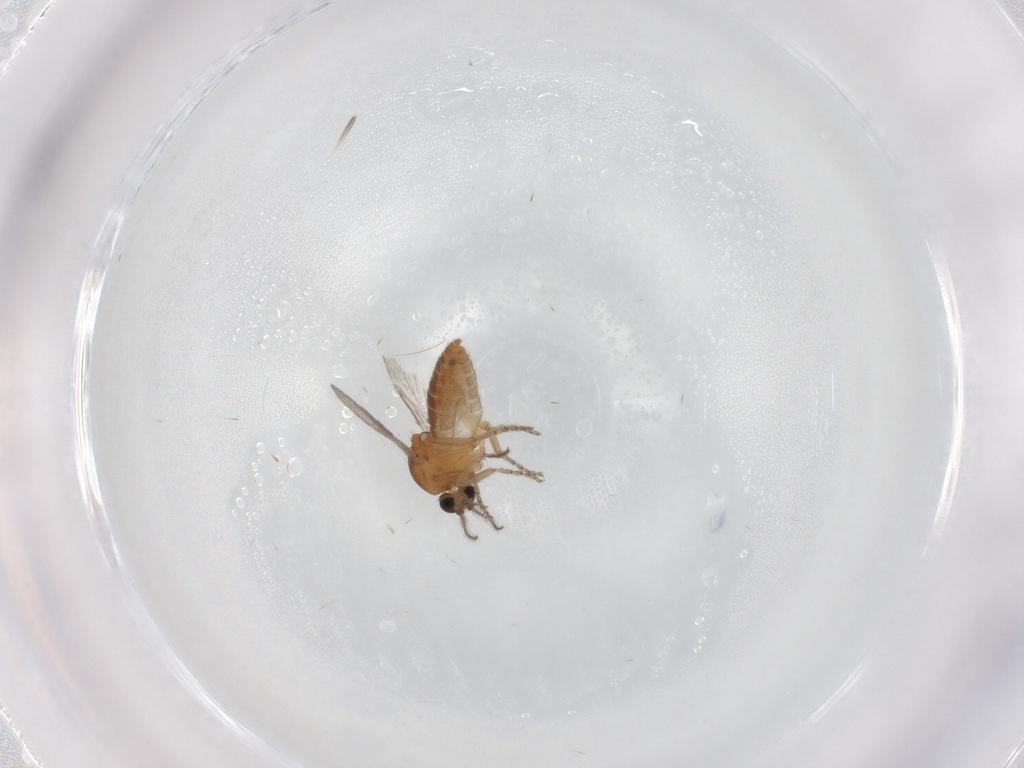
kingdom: Animalia
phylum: Arthropoda
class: Insecta
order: Diptera
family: Ceratopogonidae
